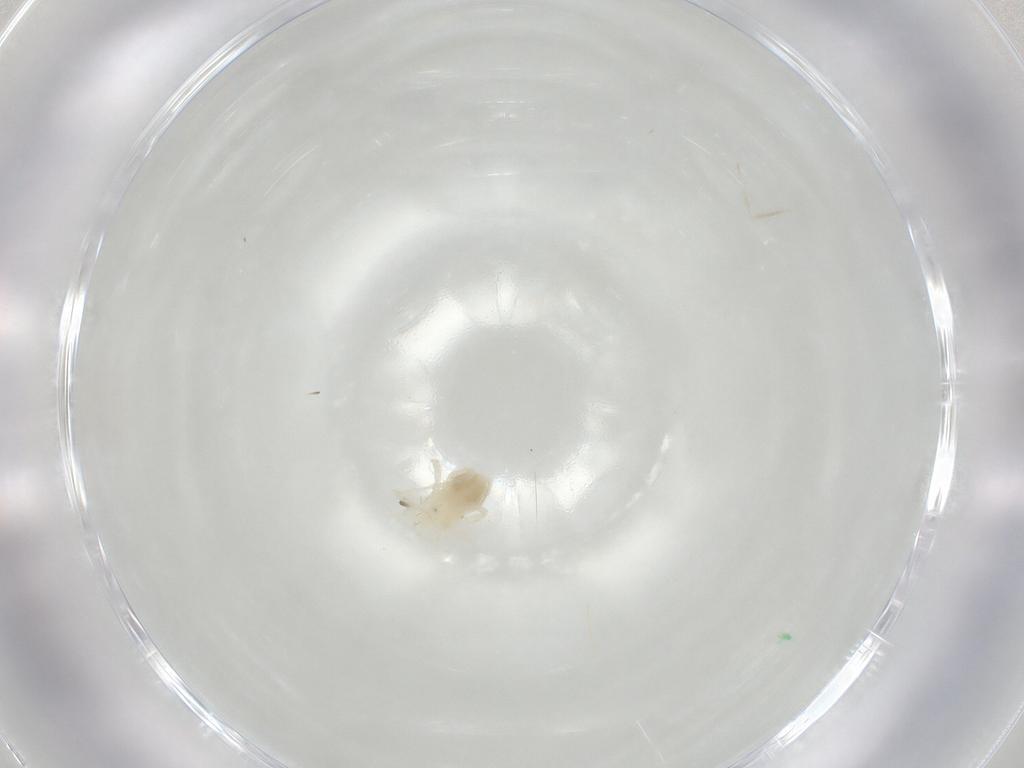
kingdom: Animalia
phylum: Arthropoda
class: Arachnida
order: Trombidiformes
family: Anystidae
